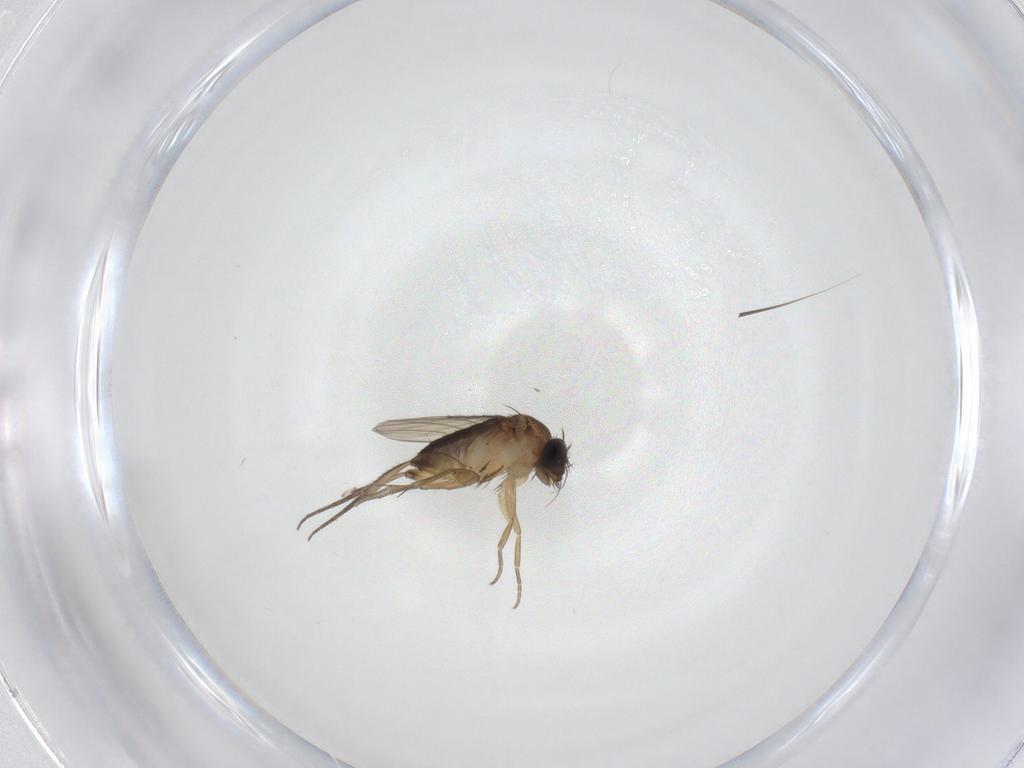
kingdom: Animalia
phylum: Arthropoda
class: Insecta
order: Diptera
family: Phoridae
